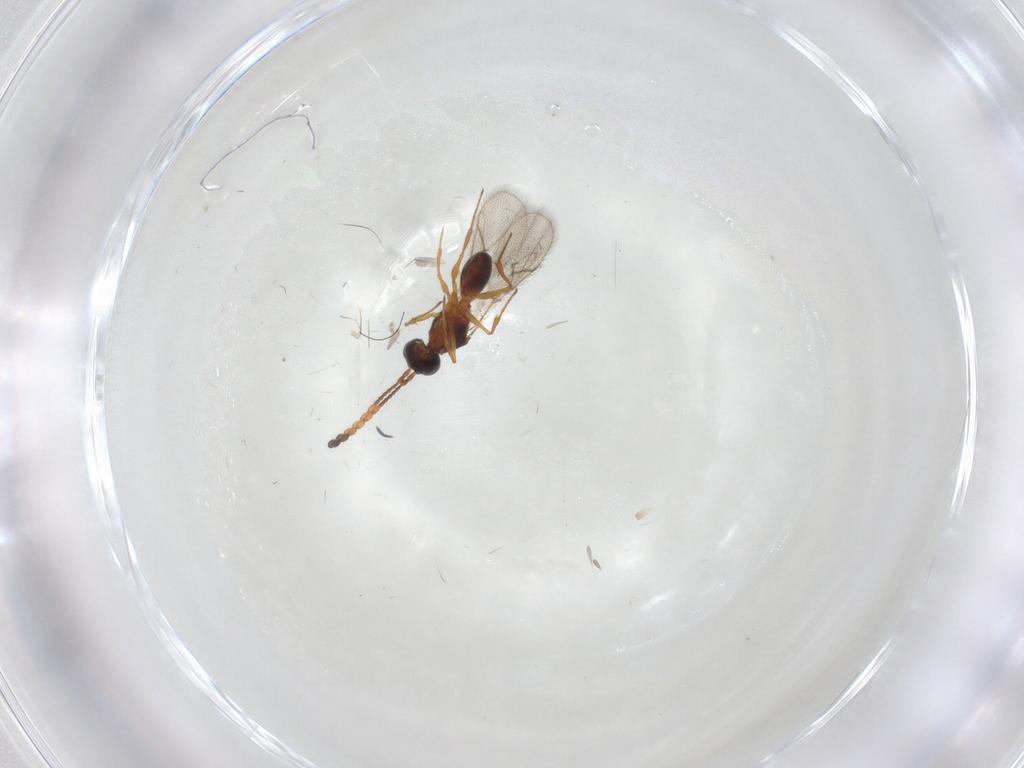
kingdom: Animalia
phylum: Arthropoda
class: Insecta
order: Hymenoptera
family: Figitidae
